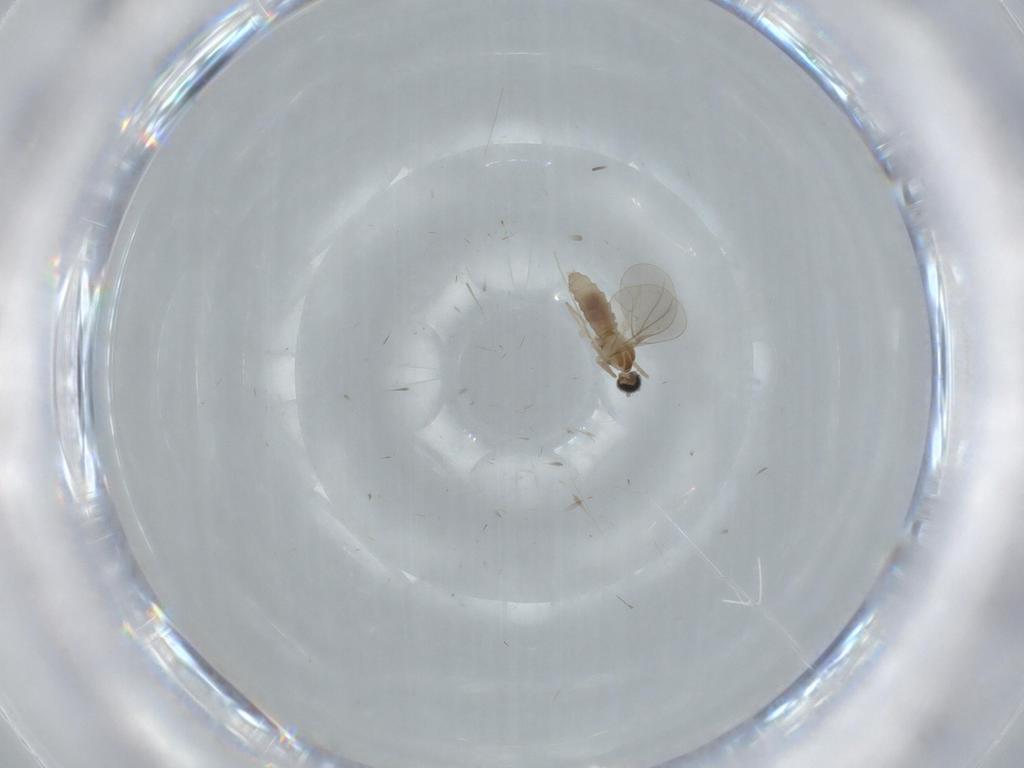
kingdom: Animalia
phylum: Arthropoda
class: Insecta
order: Diptera
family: Cecidomyiidae
